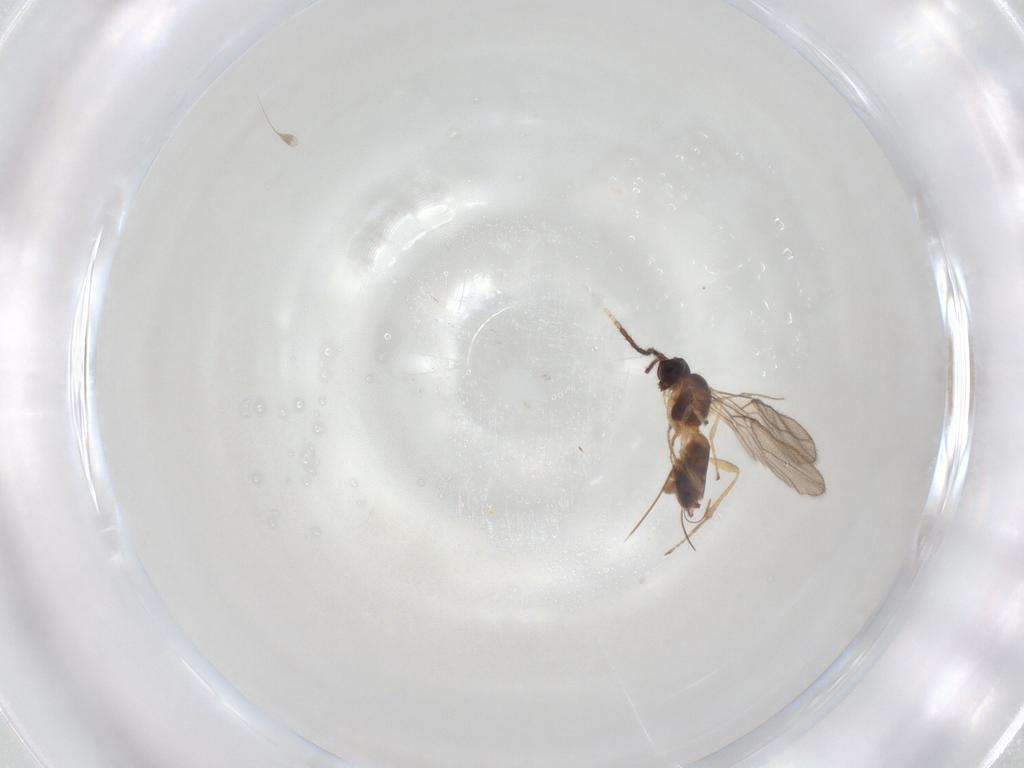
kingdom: Animalia
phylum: Arthropoda
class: Insecta
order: Hymenoptera
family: Braconidae
